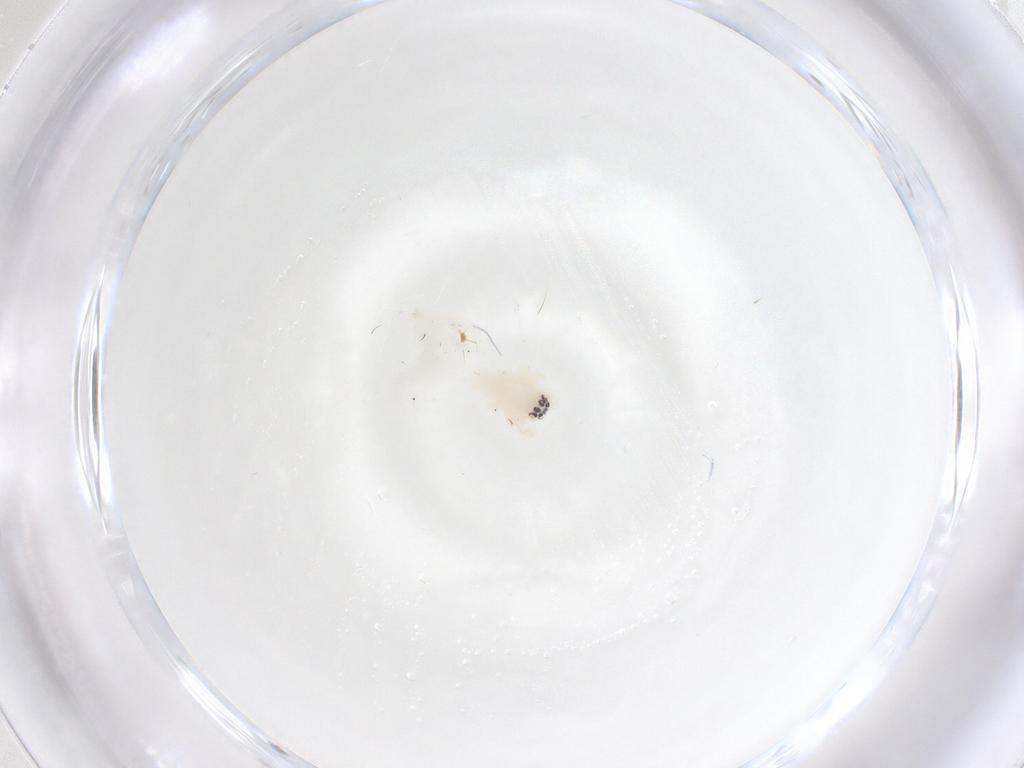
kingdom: Animalia
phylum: Arthropoda
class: Arachnida
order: Araneae
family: Anyphaenidae
